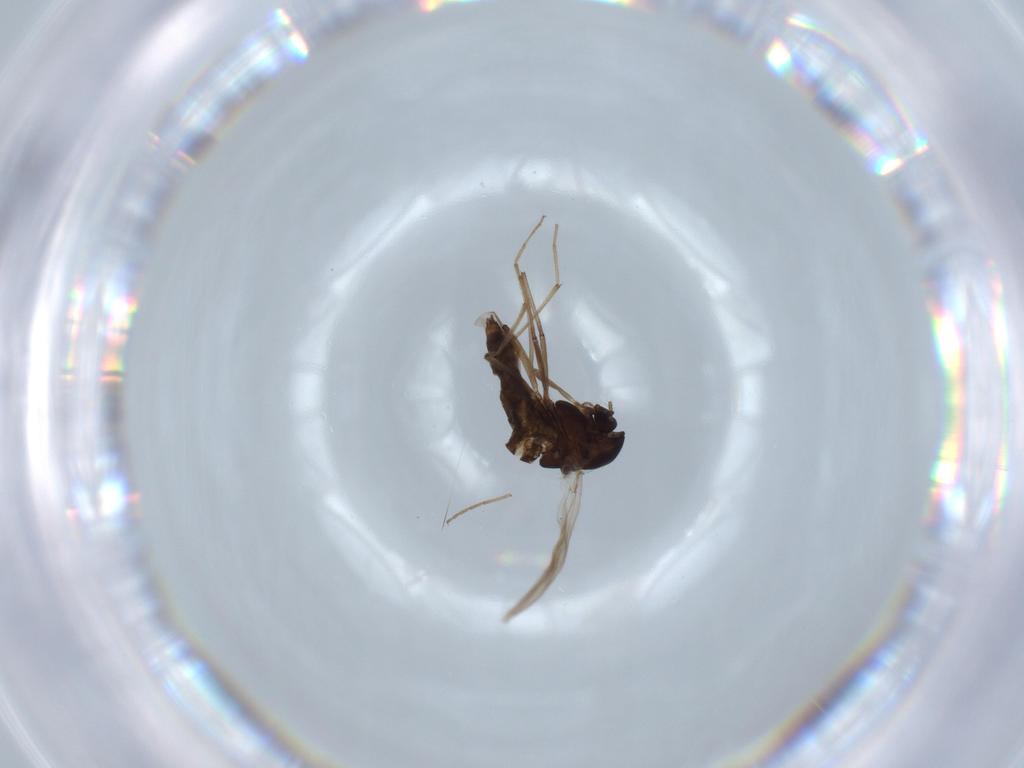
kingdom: Animalia
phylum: Arthropoda
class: Insecta
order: Diptera
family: Chironomidae
